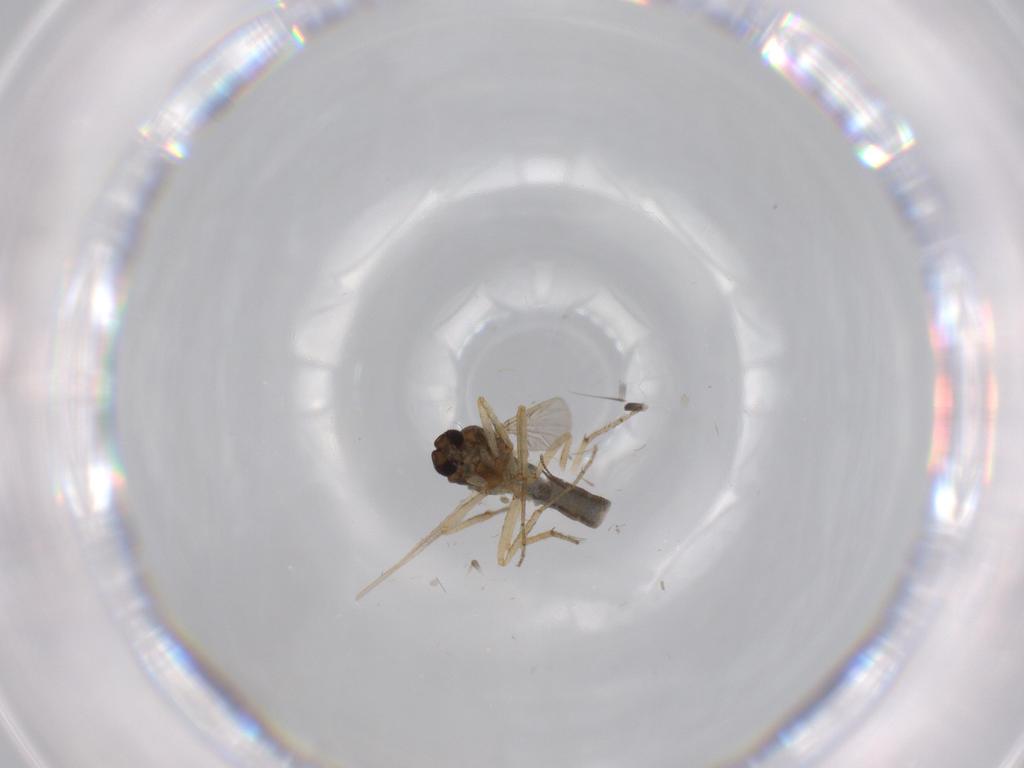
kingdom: Animalia
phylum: Arthropoda
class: Insecta
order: Diptera
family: Cecidomyiidae
